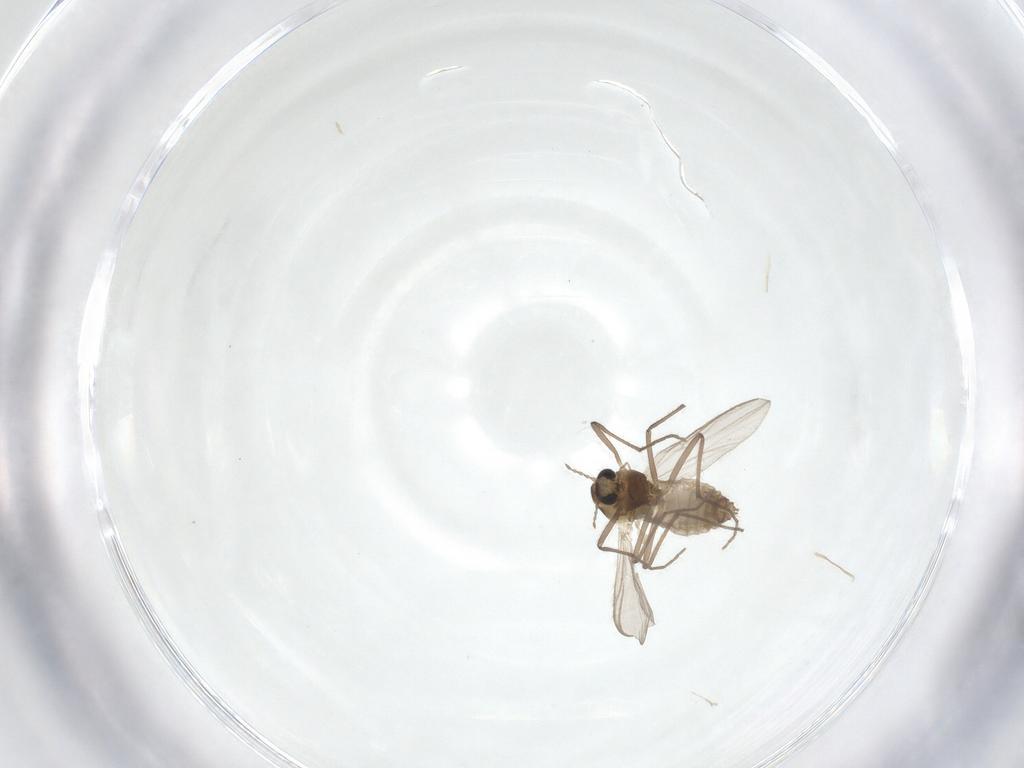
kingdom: Animalia
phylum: Arthropoda
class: Insecta
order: Diptera
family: Chironomidae
